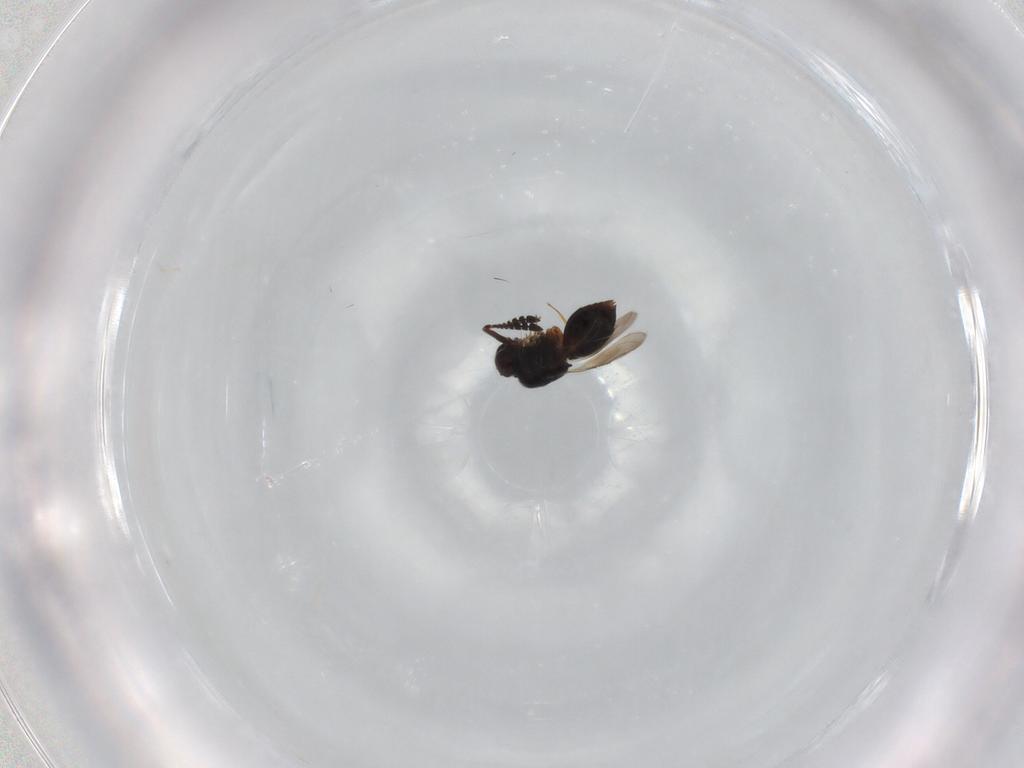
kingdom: Animalia
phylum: Arthropoda
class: Insecta
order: Hymenoptera
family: Ceraphronidae
